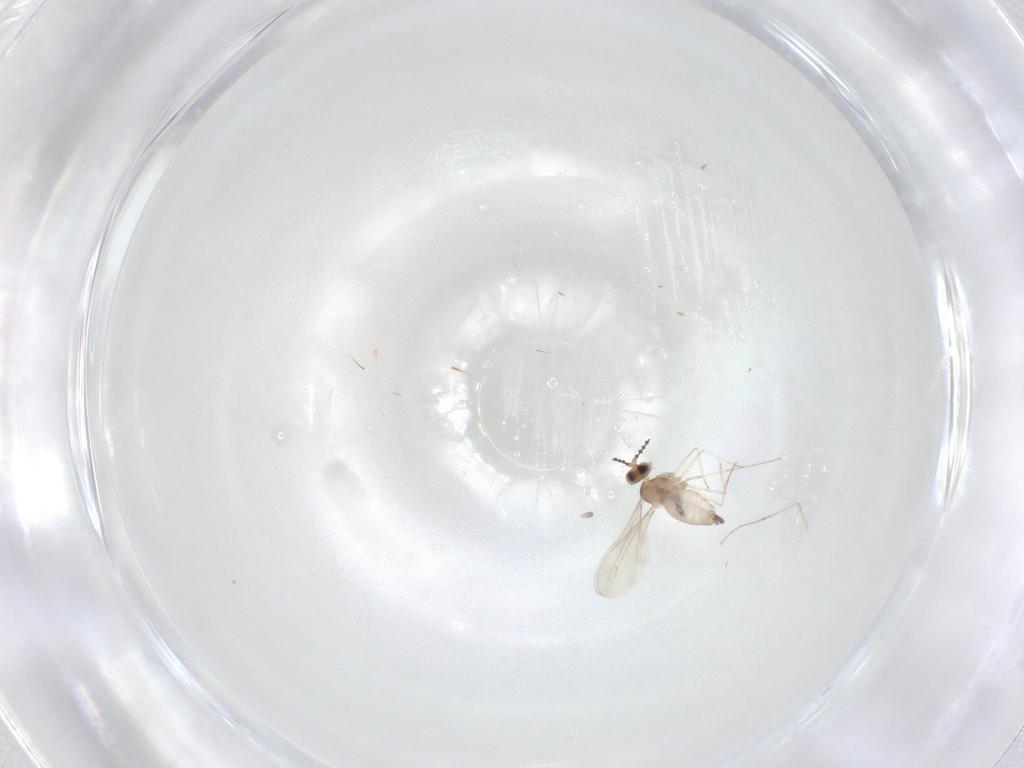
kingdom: Animalia
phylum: Arthropoda
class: Insecta
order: Diptera
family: Cecidomyiidae
